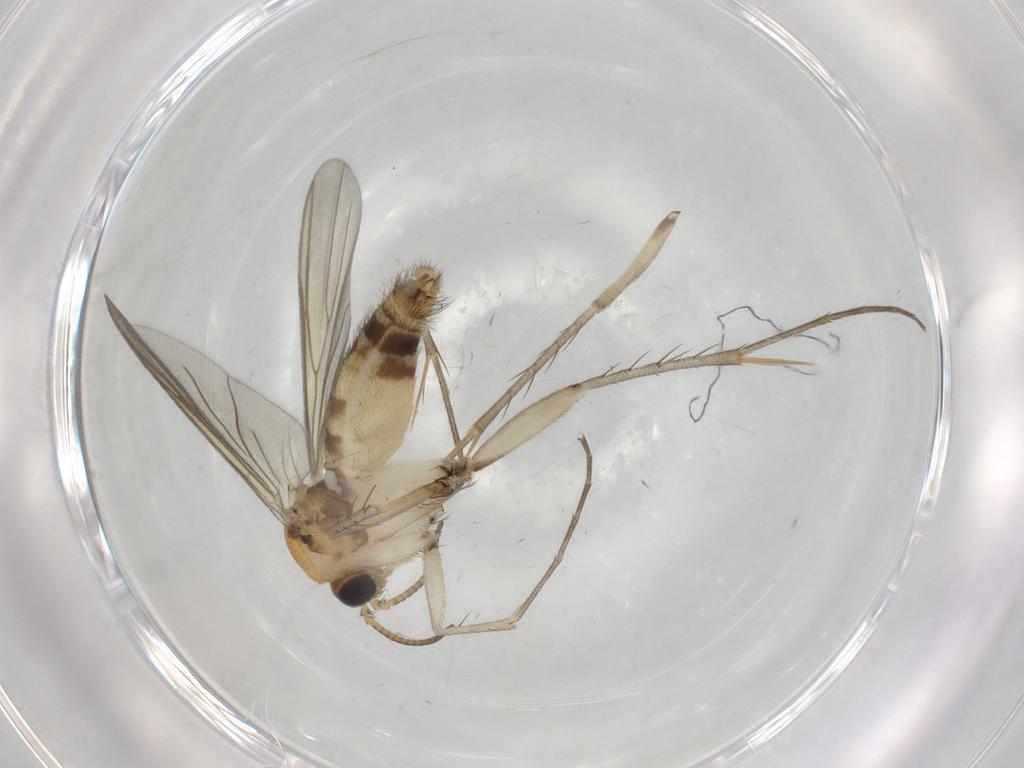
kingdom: Animalia
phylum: Arthropoda
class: Insecta
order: Diptera
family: Mycetophilidae
